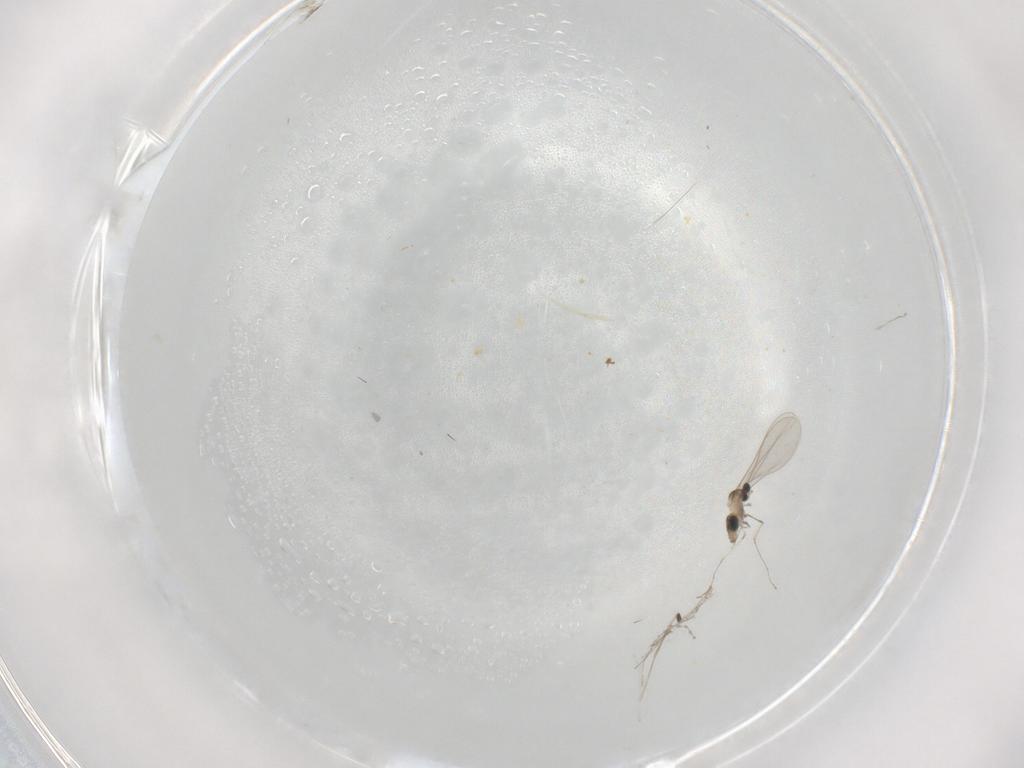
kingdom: Animalia
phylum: Arthropoda
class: Insecta
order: Diptera
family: Cecidomyiidae
